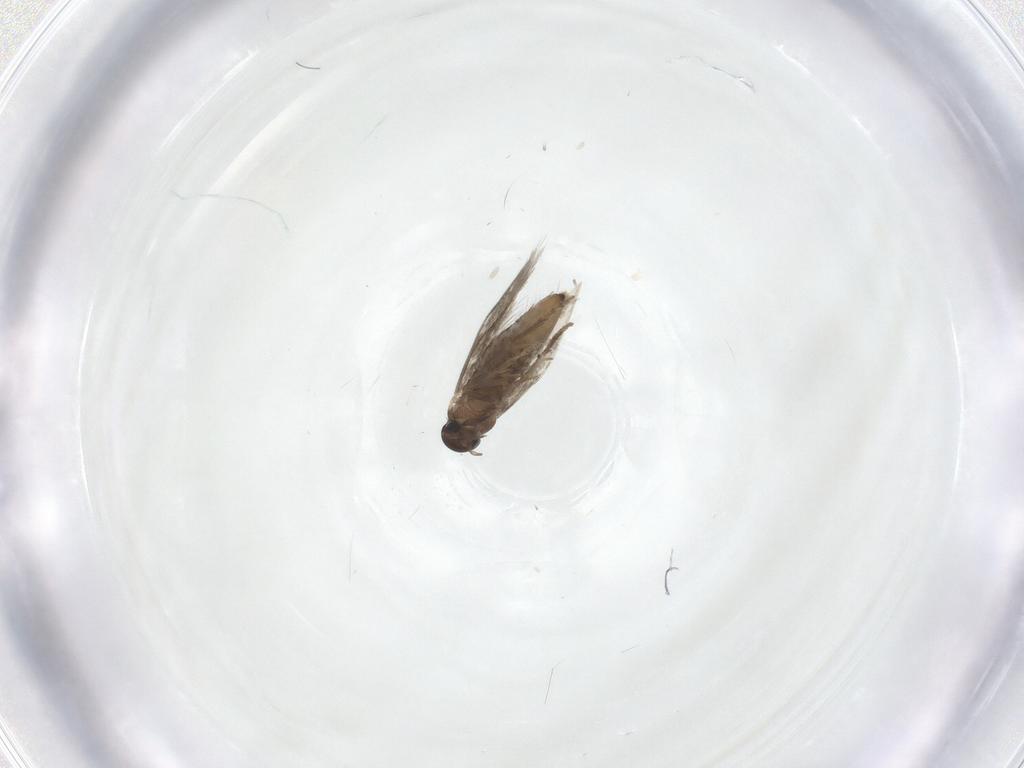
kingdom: Animalia
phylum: Arthropoda
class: Insecta
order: Lepidoptera
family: Heliozelidae
